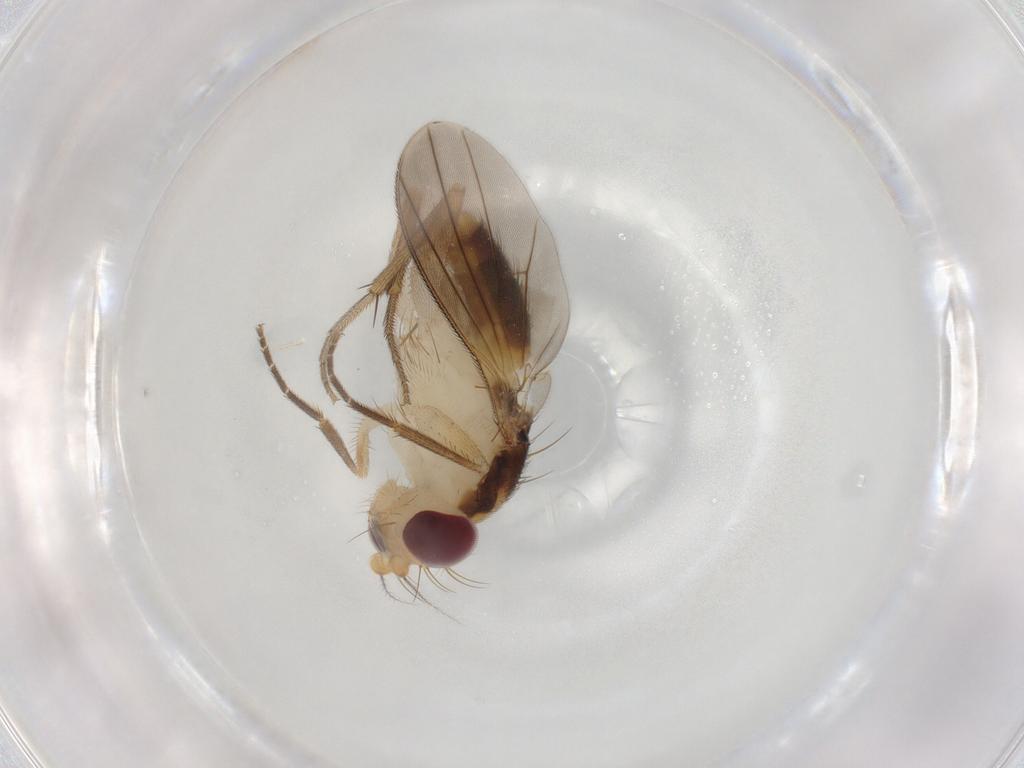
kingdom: Animalia
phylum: Arthropoda
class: Insecta
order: Diptera
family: Clusiidae
